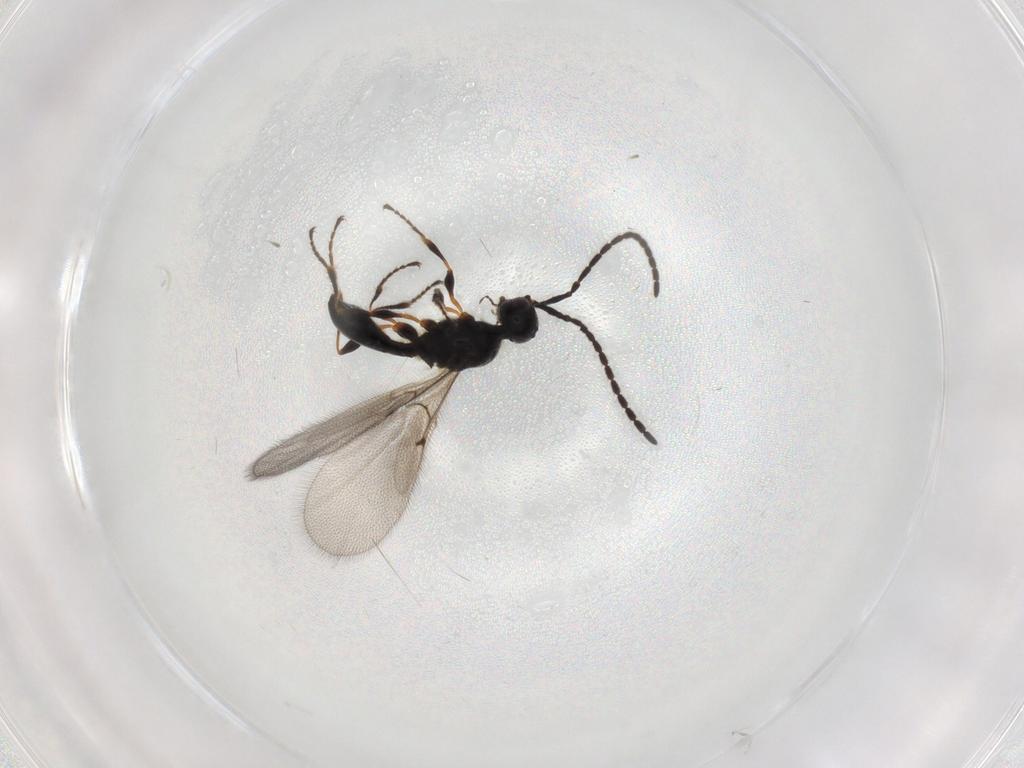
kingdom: Animalia
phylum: Arthropoda
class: Insecta
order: Hymenoptera
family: Diapriidae
